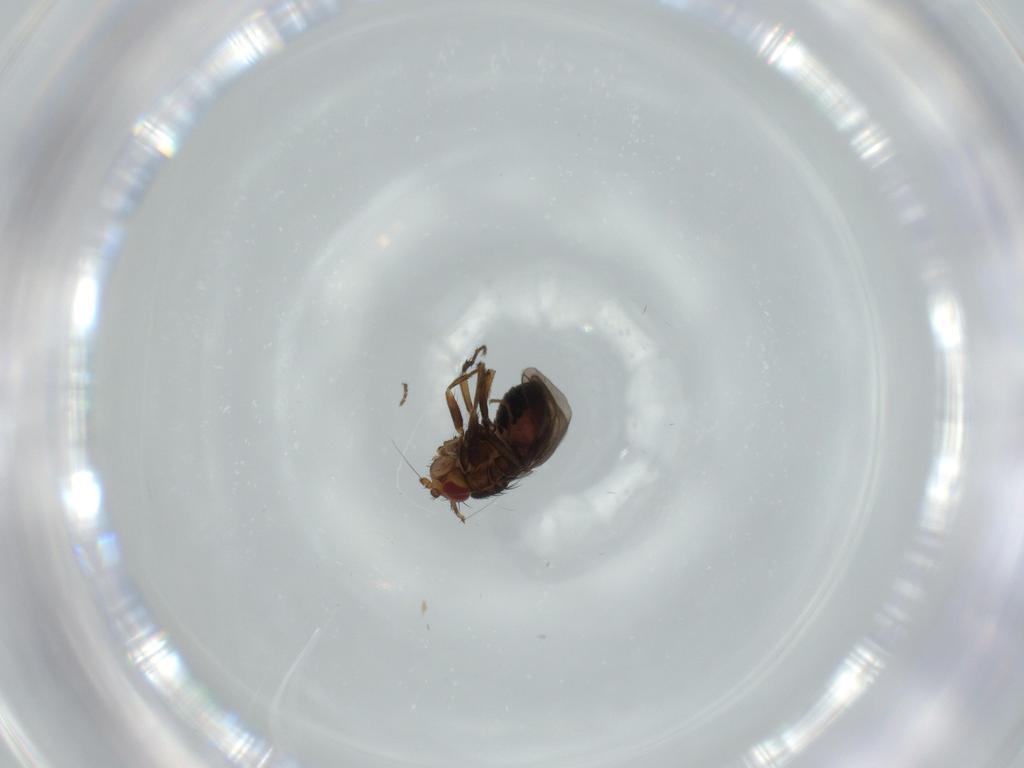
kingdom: Animalia
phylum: Arthropoda
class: Insecta
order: Diptera
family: Sphaeroceridae
